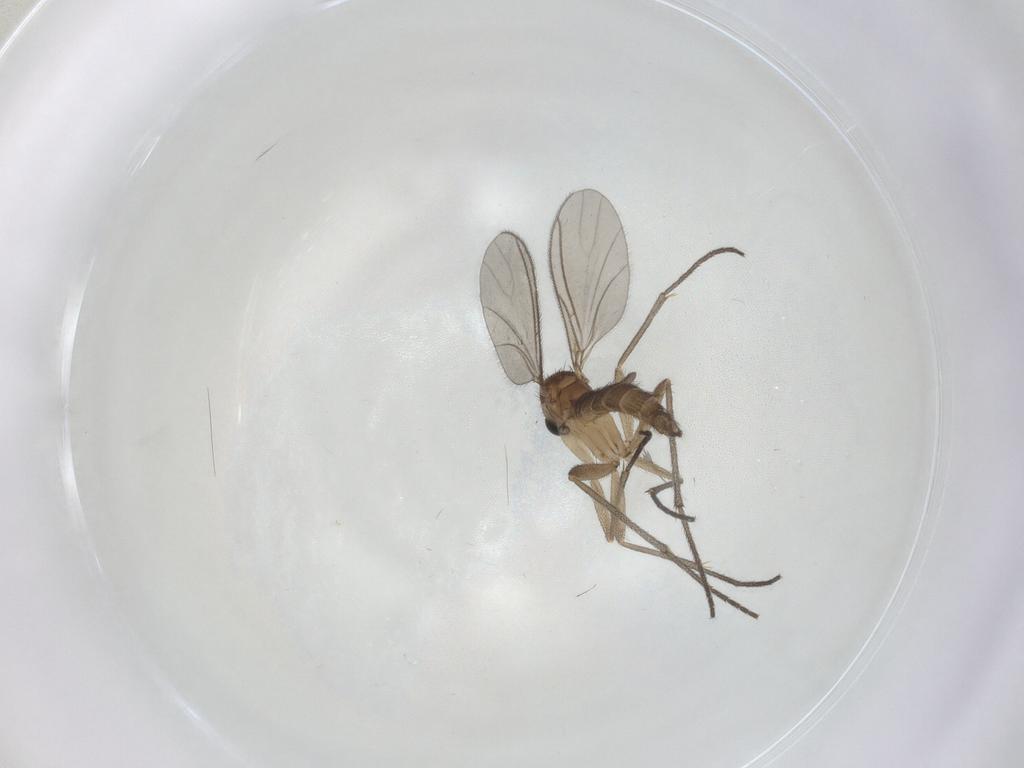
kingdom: Animalia
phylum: Arthropoda
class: Insecta
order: Diptera
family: Sciaridae
